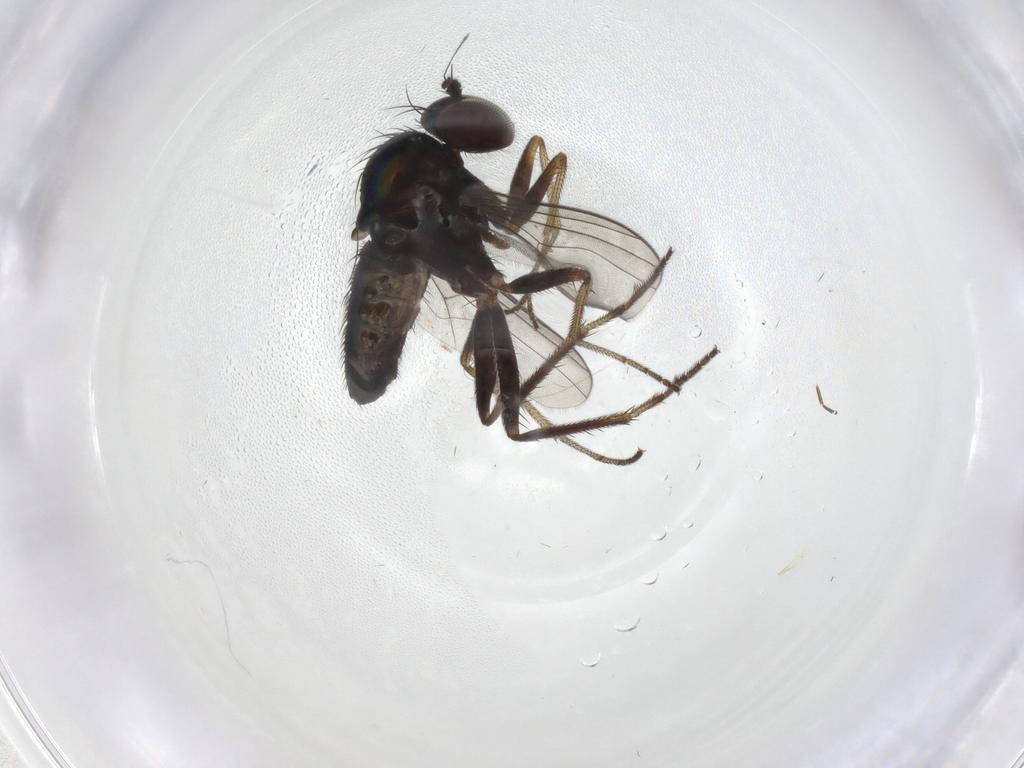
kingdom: Animalia
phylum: Arthropoda
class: Insecta
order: Diptera
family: Dolichopodidae
